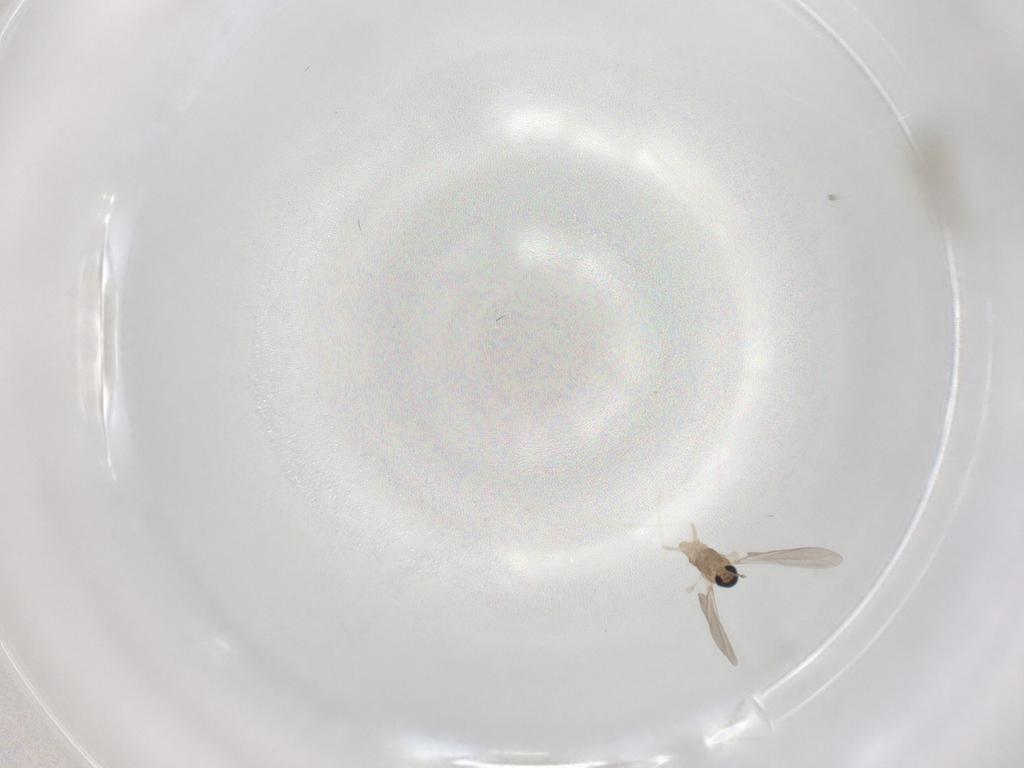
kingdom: Animalia
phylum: Arthropoda
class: Insecta
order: Diptera
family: Cecidomyiidae
